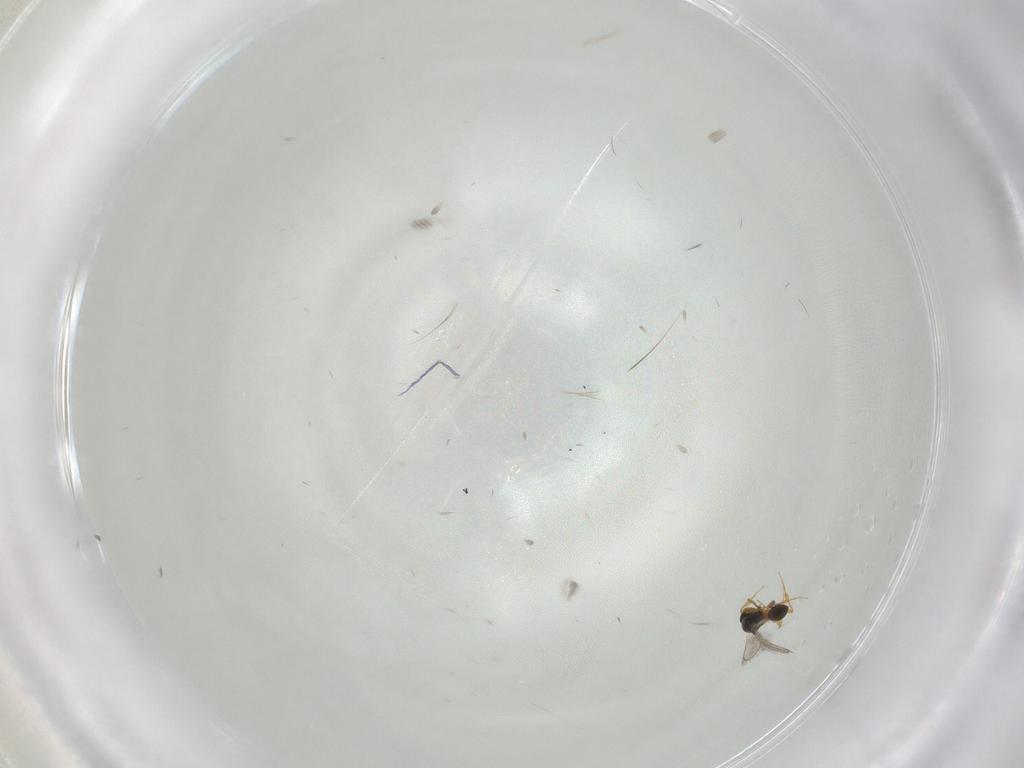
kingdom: Animalia
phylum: Arthropoda
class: Insecta
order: Hymenoptera
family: Platygastridae
